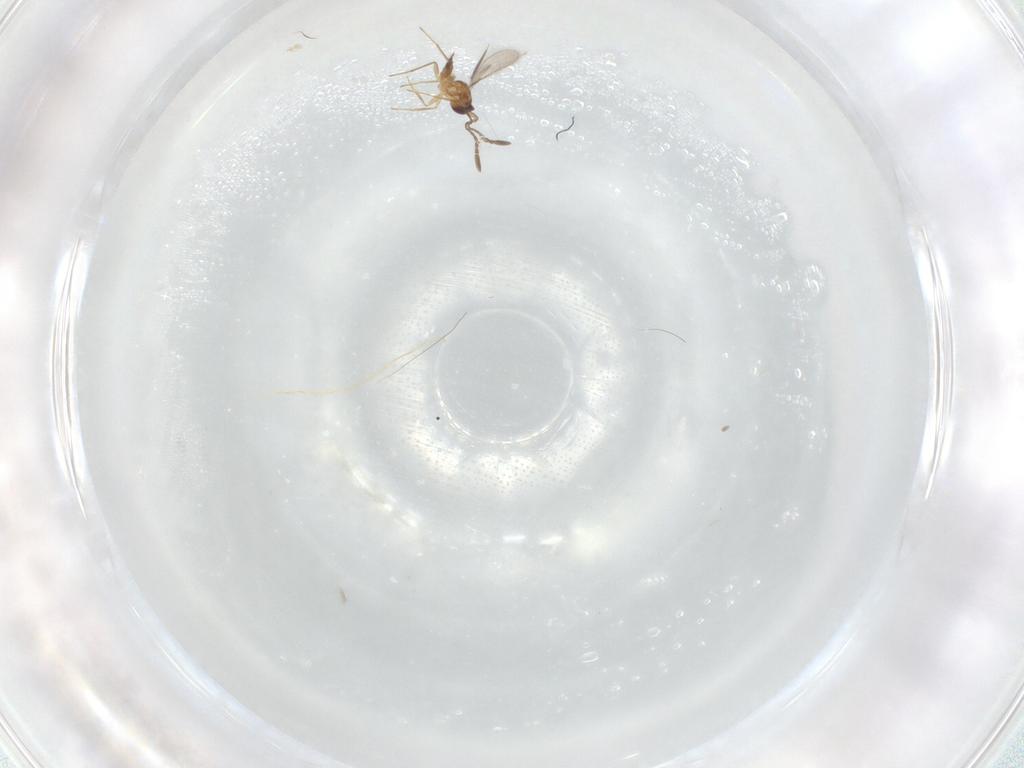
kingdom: Animalia
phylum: Arthropoda
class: Insecta
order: Hymenoptera
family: Mymaridae
